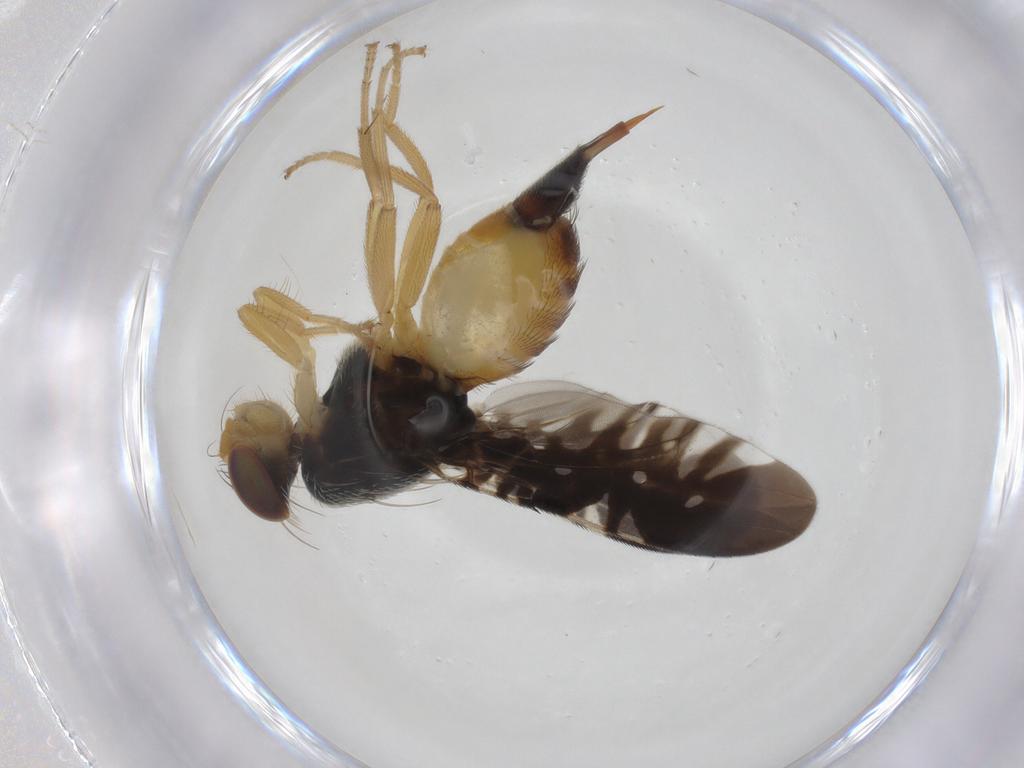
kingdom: Animalia
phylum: Arthropoda
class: Insecta
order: Diptera
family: Tephritidae
